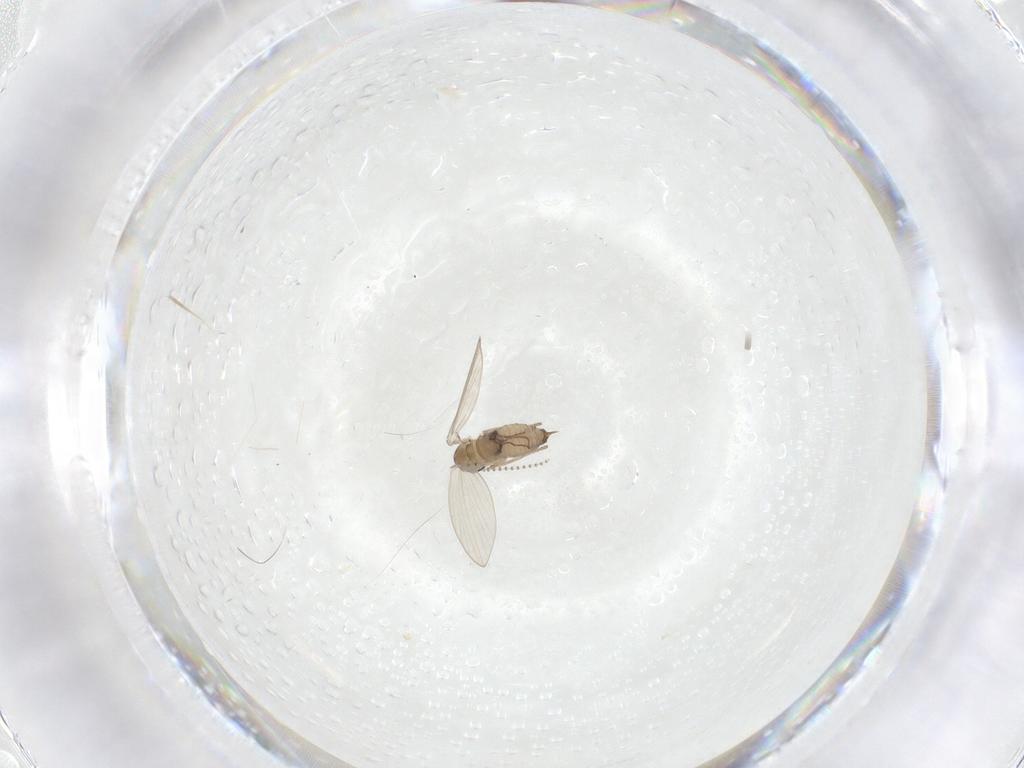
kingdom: Animalia
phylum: Arthropoda
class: Insecta
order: Diptera
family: Psychodidae
